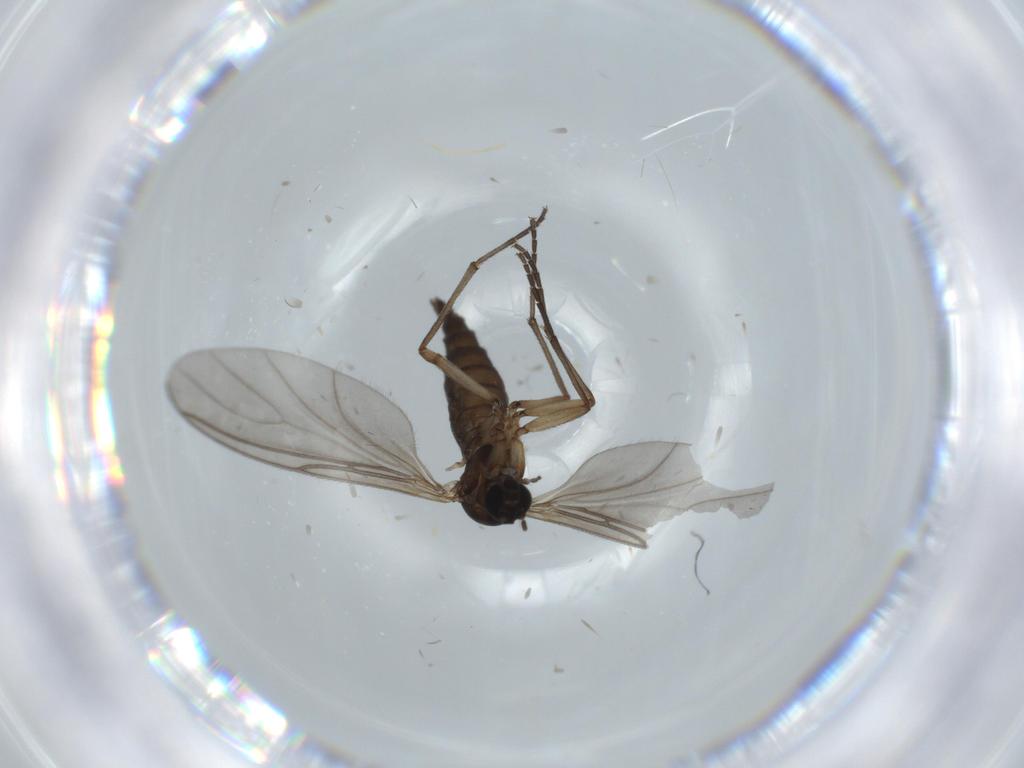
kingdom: Animalia
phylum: Arthropoda
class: Insecta
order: Diptera
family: Phoridae
